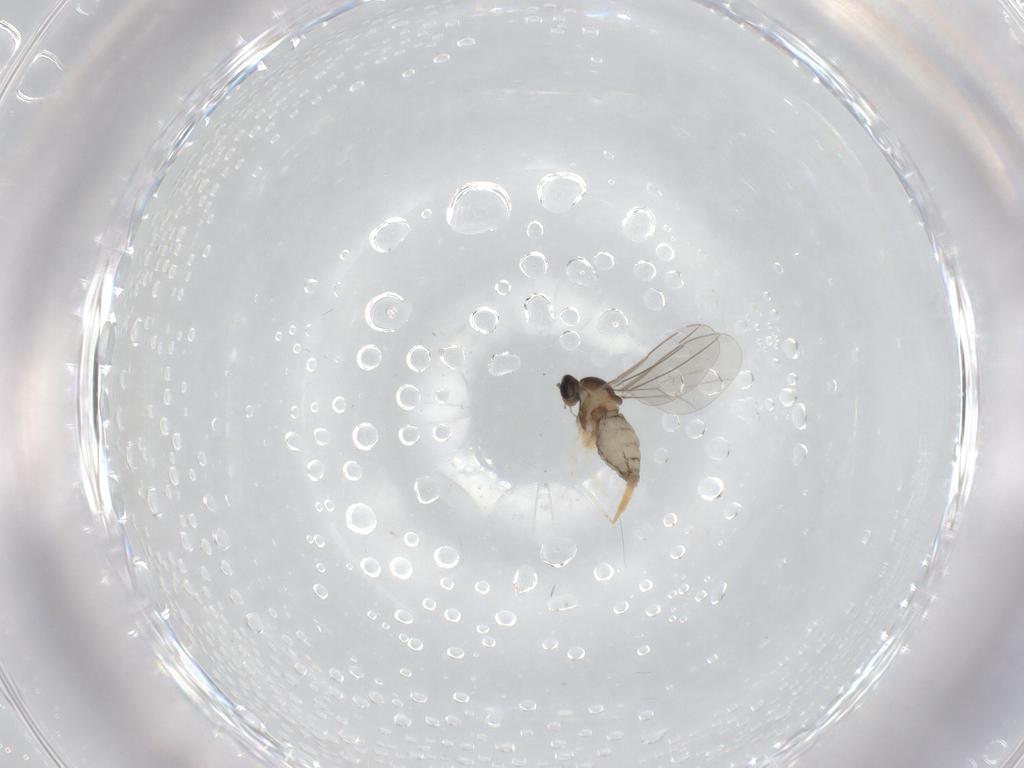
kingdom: Animalia
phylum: Arthropoda
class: Insecta
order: Diptera
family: Cecidomyiidae
